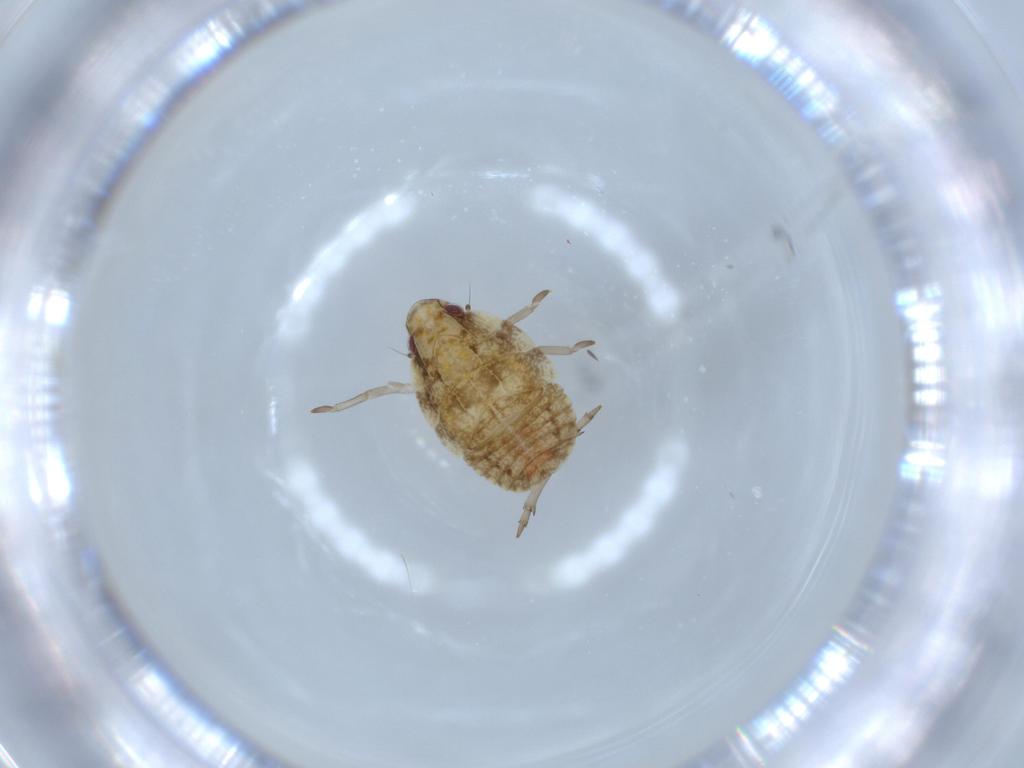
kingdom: Animalia
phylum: Arthropoda
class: Insecta
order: Hemiptera
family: Flatidae
